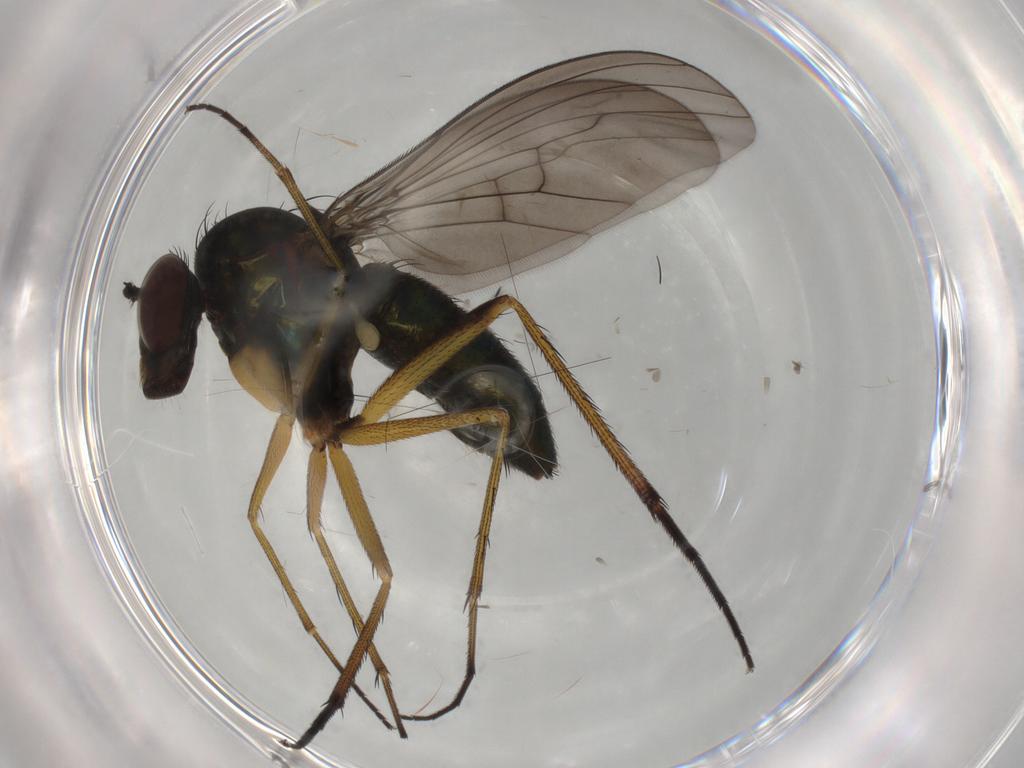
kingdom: Animalia
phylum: Arthropoda
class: Insecta
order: Diptera
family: Dolichopodidae
